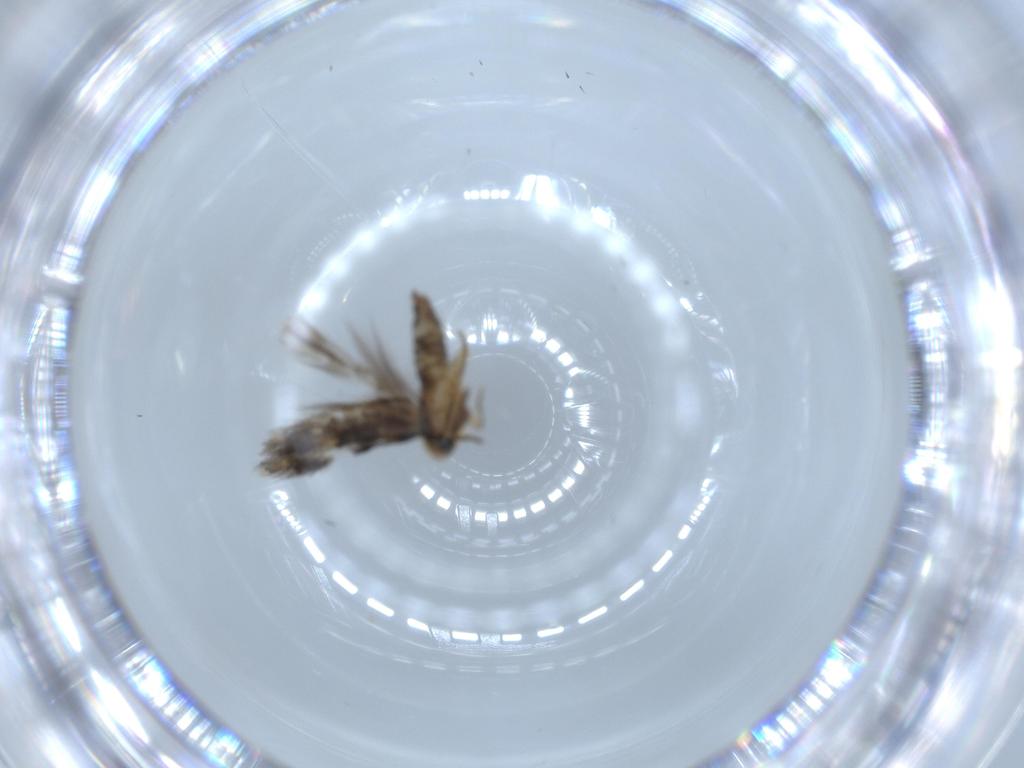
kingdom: Animalia
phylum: Arthropoda
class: Insecta
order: Lepidoptera
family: Nepticulidae
